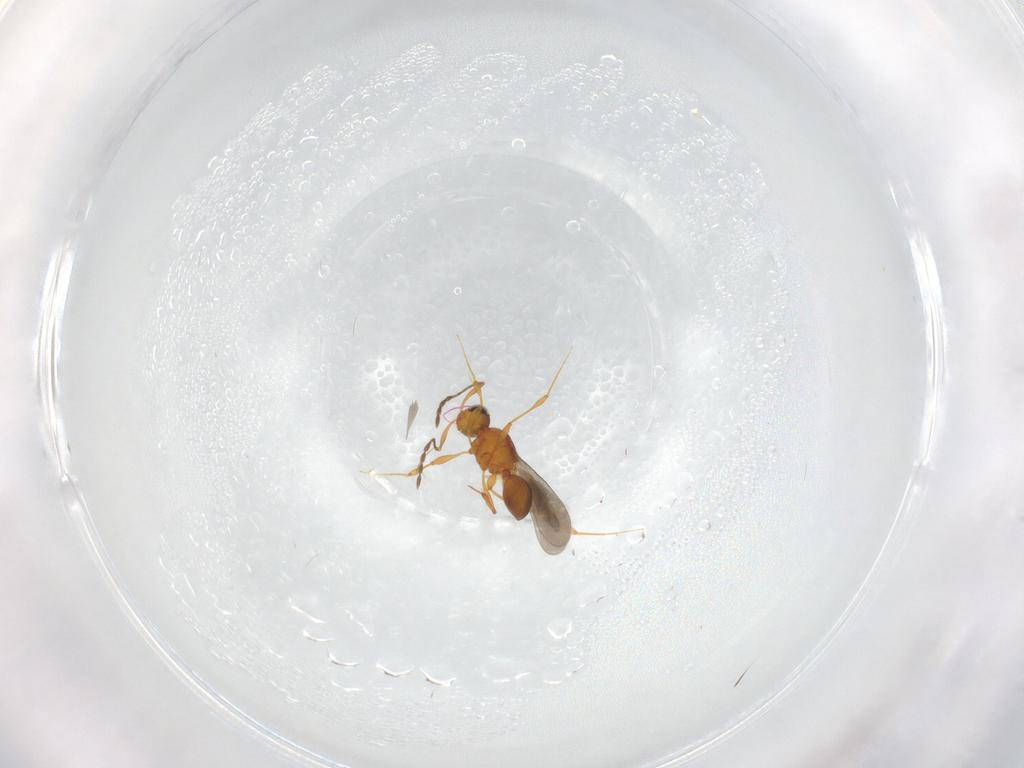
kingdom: Animalia
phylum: Arthropoda
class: Insecta
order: Hymenoptera
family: Platygastridae
